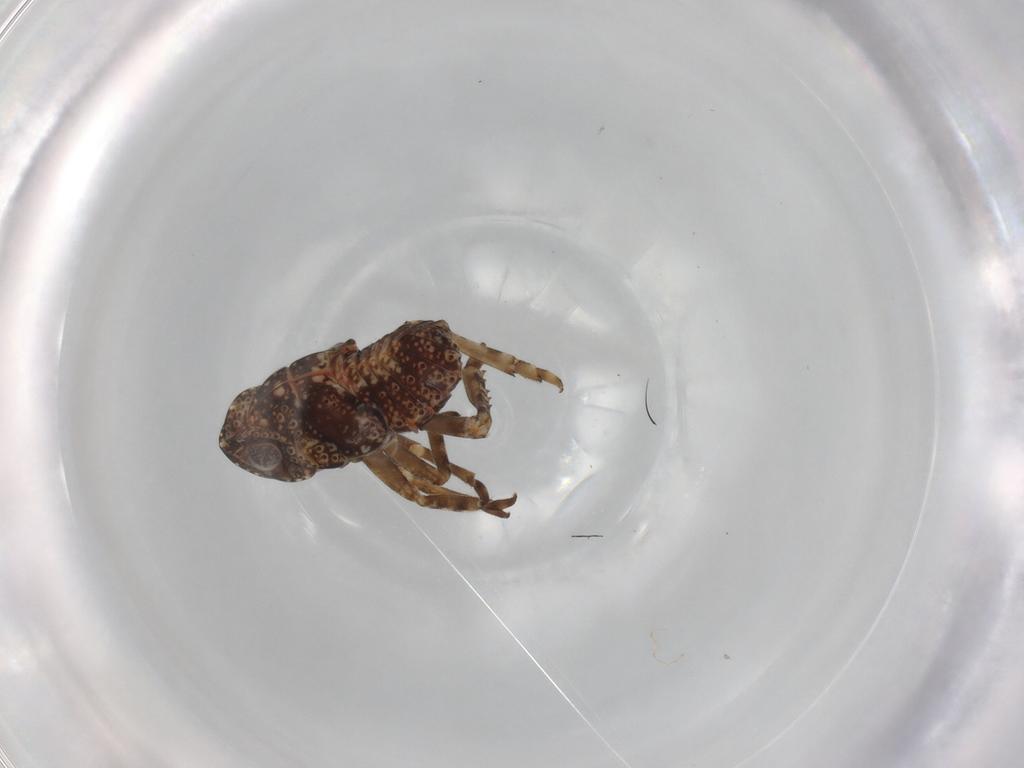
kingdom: Animalia
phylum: Arthropoda
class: Insecta
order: Hemiptera
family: Nogodinidae
